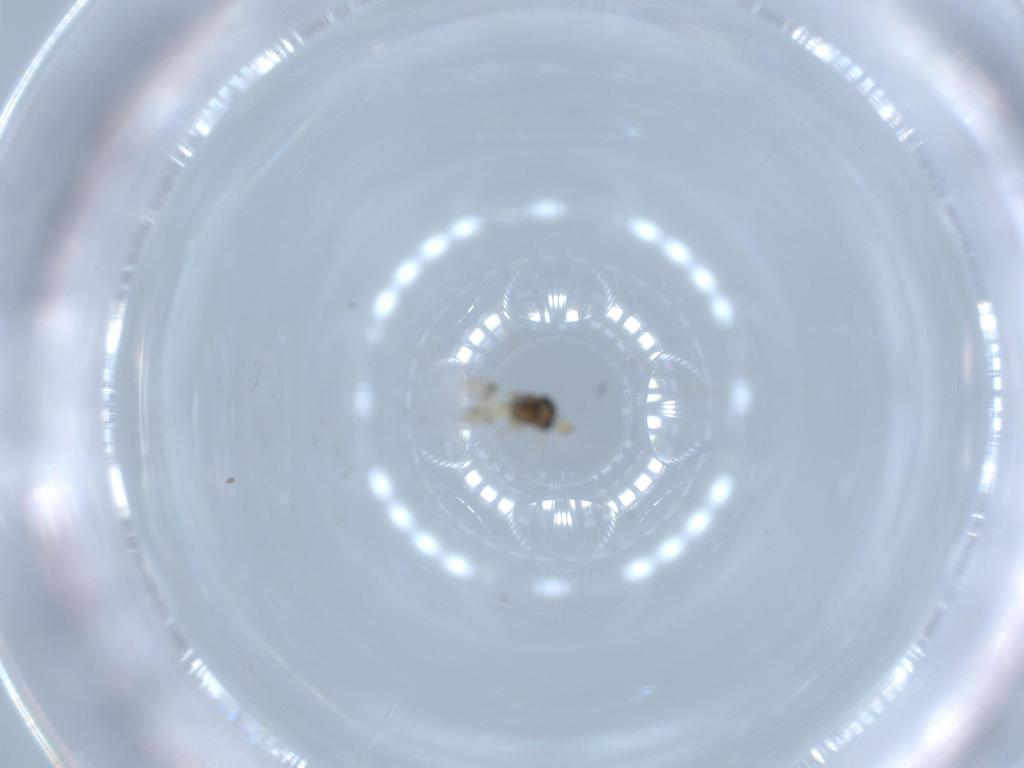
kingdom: Animalia
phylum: Arthropoda
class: Insecta
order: Hymenoptera
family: Scelionidae
